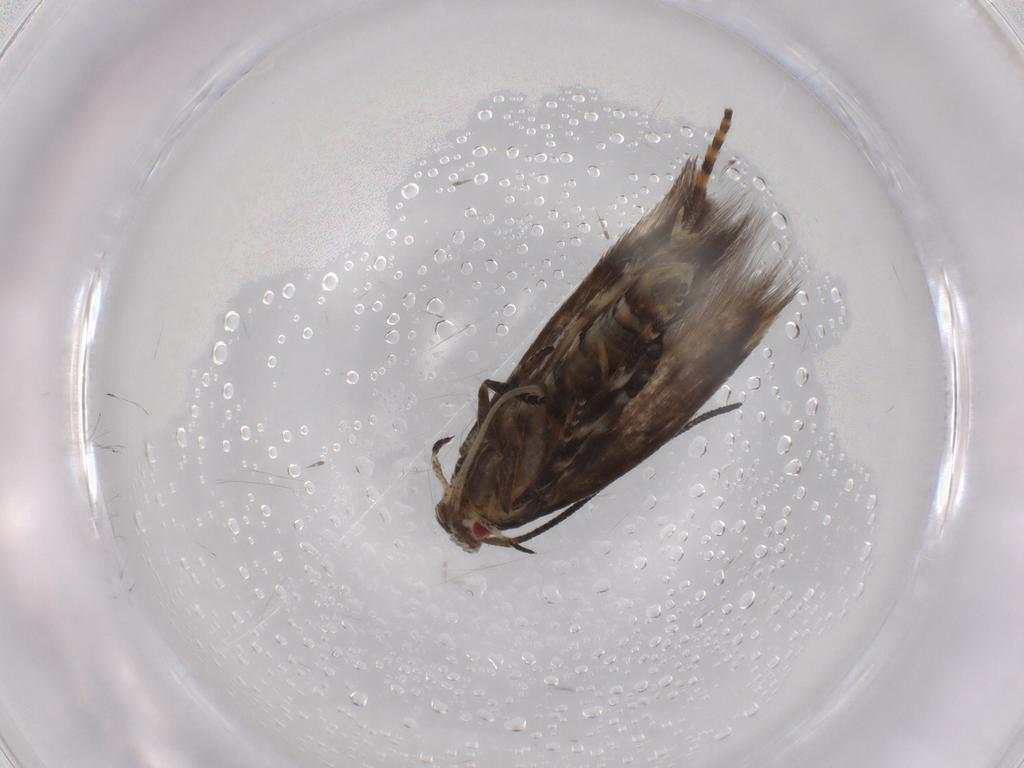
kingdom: Animalia
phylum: Arthropoda
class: Insecta
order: Lepidoptera
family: Momphidae
